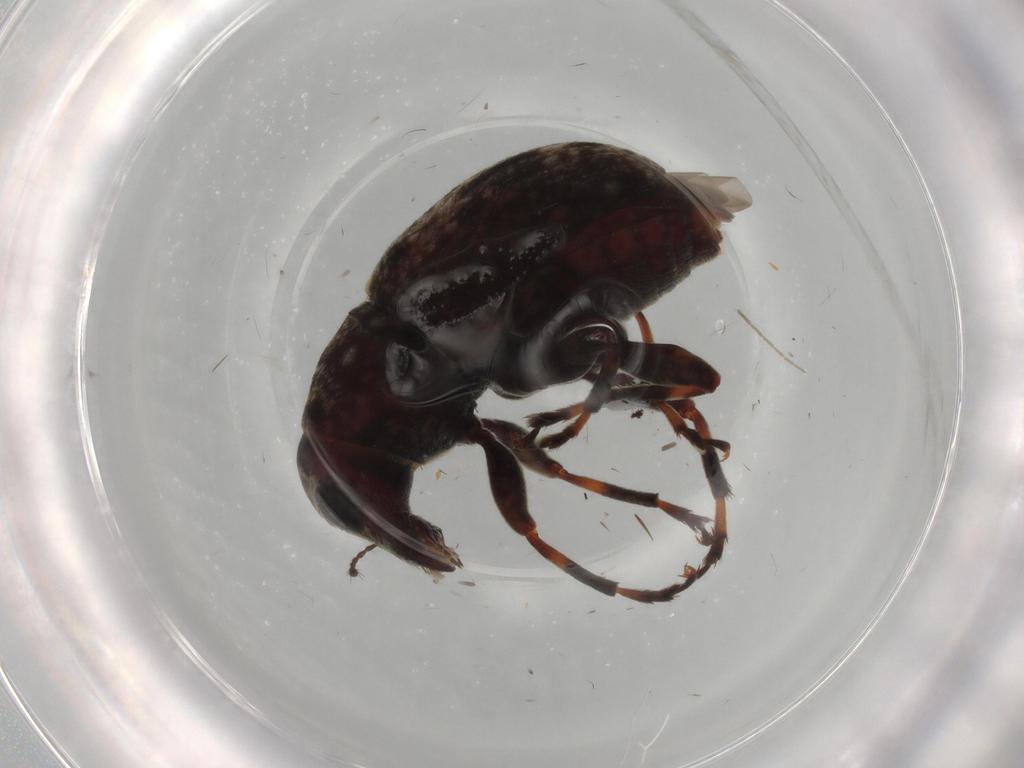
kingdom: Animalia
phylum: Arthropoda
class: Insecta
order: Coleoptera
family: Anthribidae
